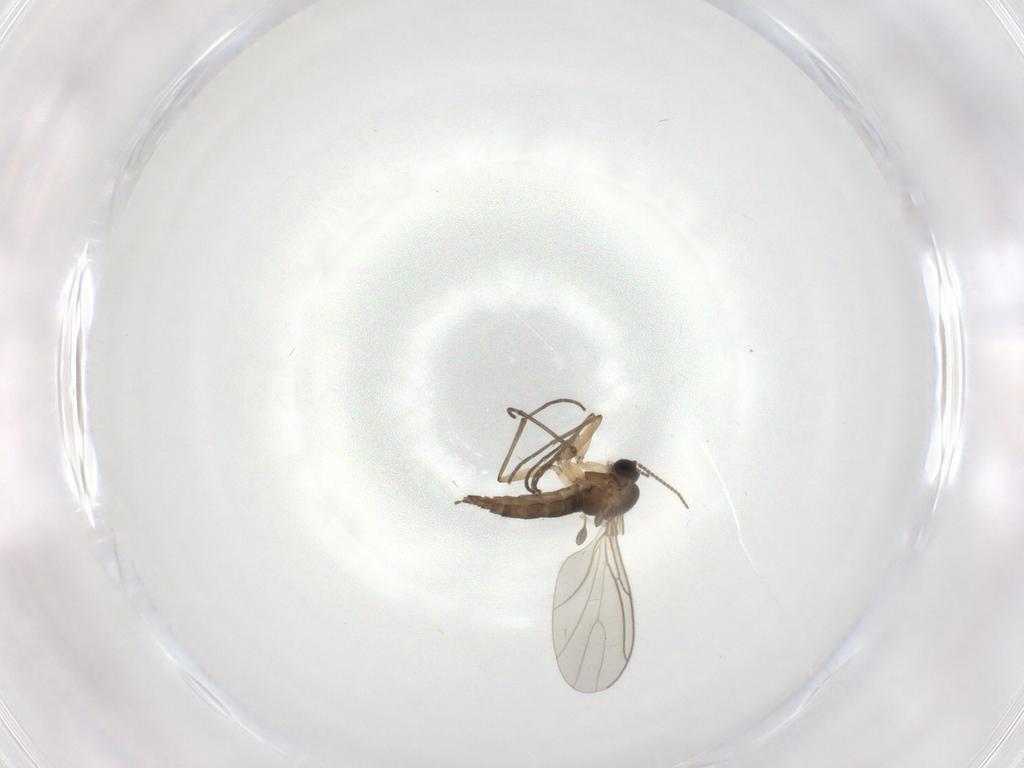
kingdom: Animalia
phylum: Arthropoda
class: Insecta
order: Diptera
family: Sciaridae
